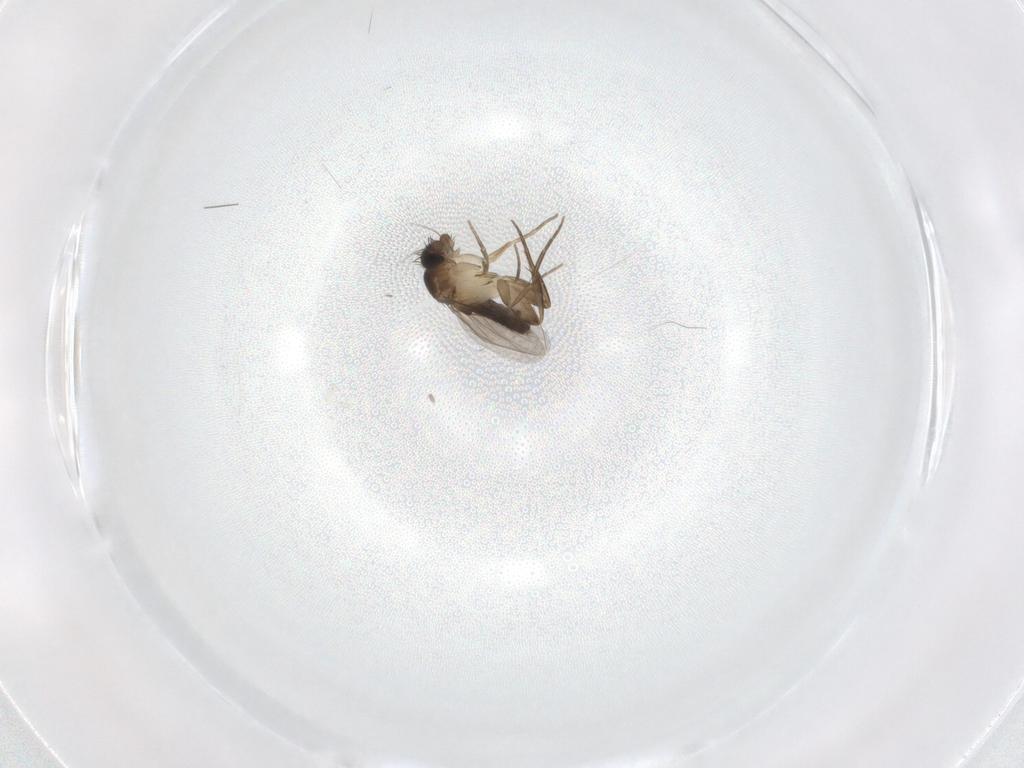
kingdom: Animalia
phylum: Arthropoda
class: Insecta
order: Diptera
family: Phoridae
